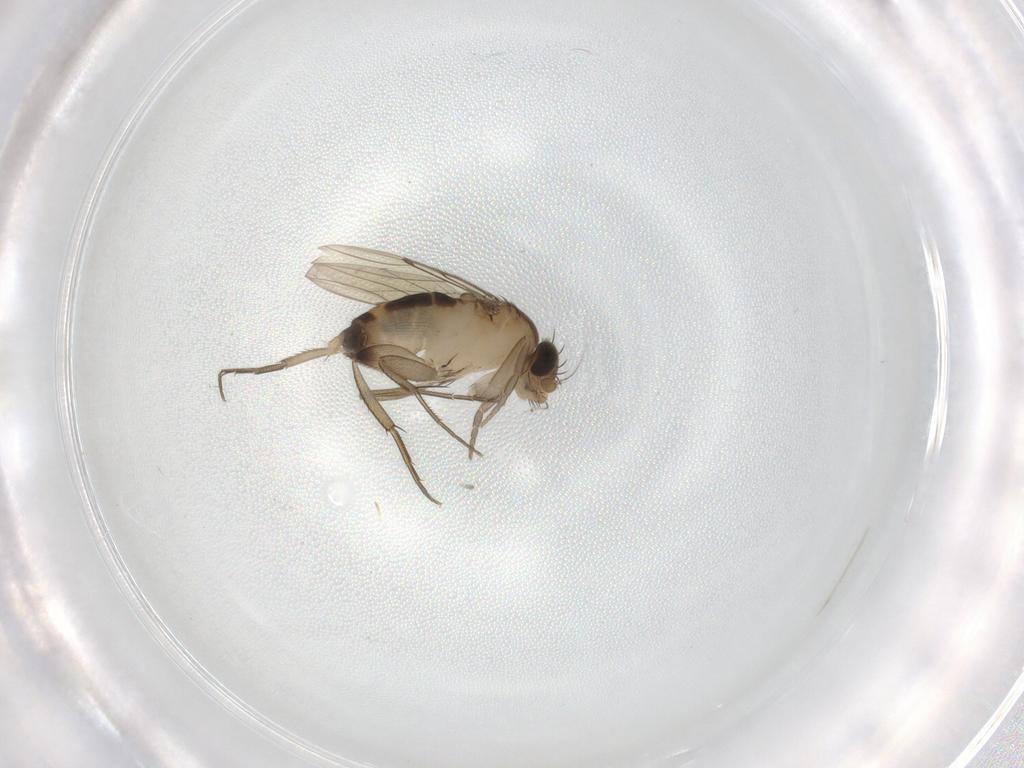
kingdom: Animalia
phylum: Arthropoda
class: Insecta
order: Diptera
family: Phoridae
